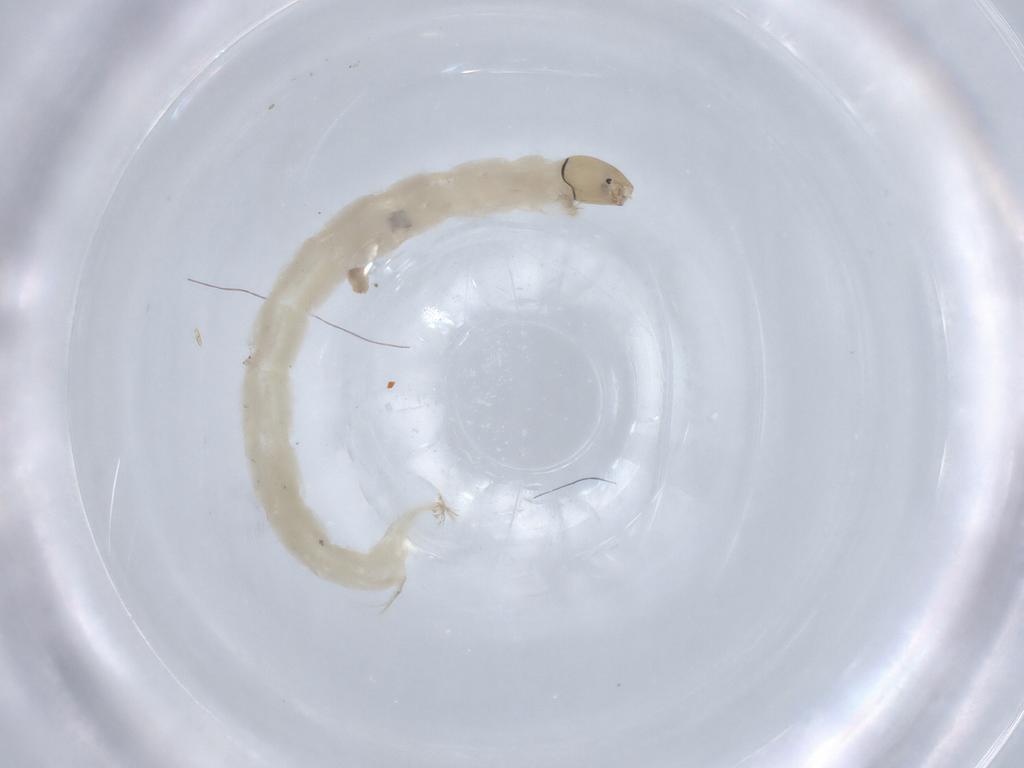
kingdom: Animalia
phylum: Arthropoda
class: Insecta
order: Diptera
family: Chironomidae
